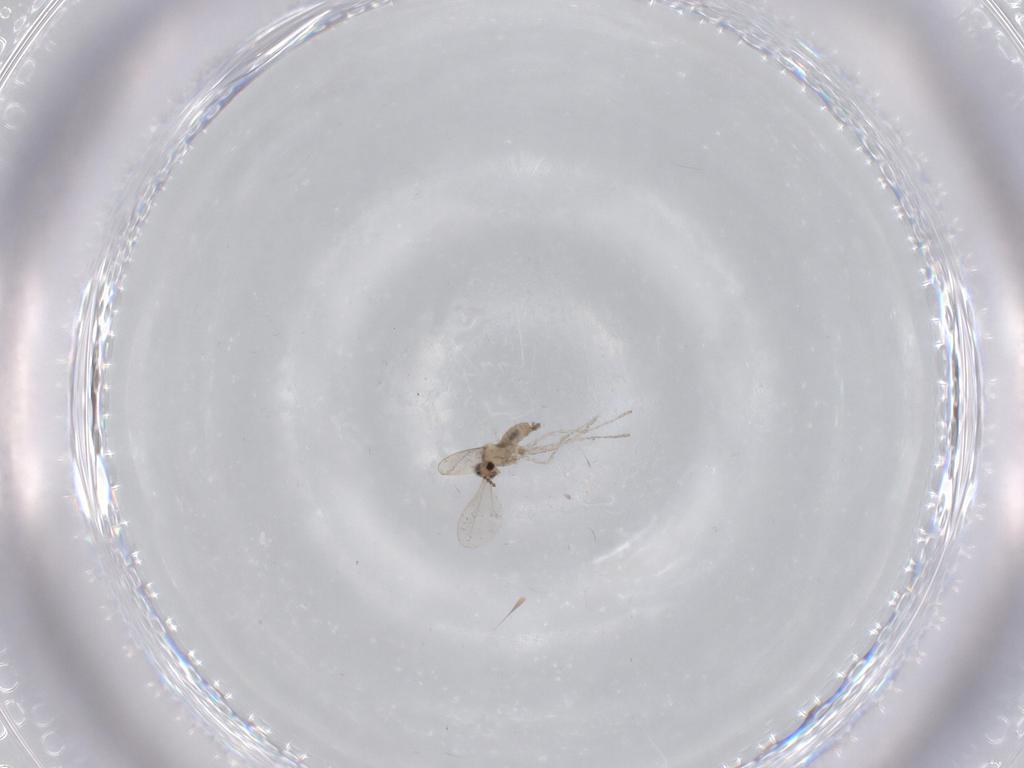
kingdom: Animalia
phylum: Arthropoda
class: Insecta
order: Diptera
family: Cecidomyiidae
